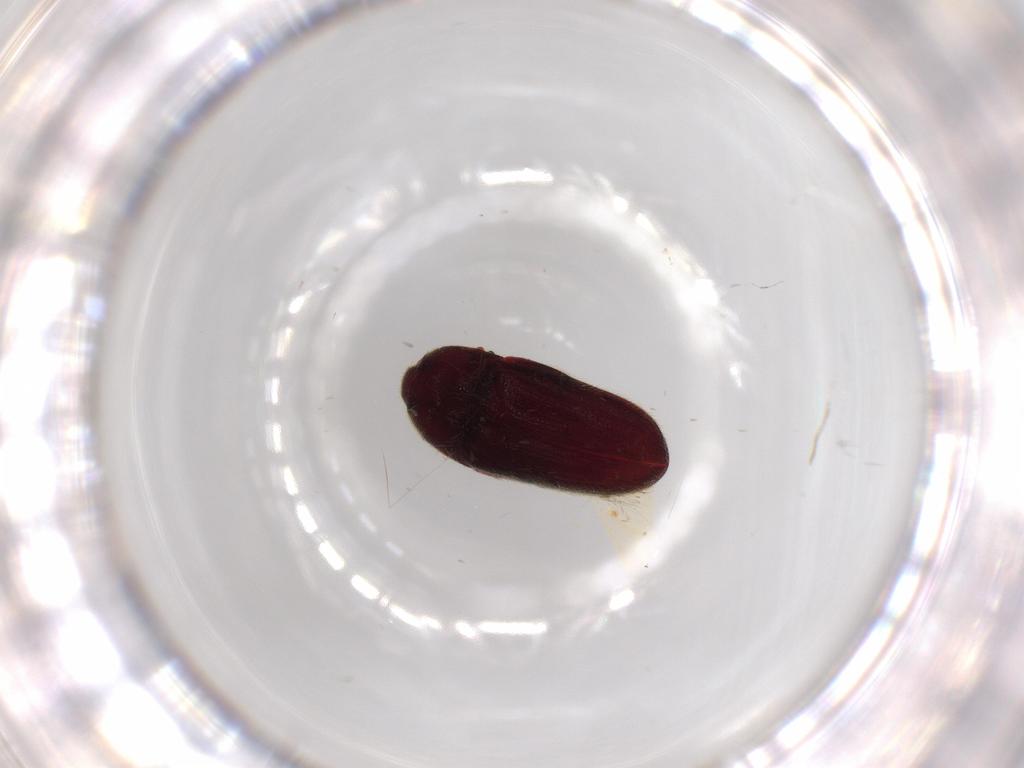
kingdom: Animalia
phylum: Arthropoda
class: Insecta
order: Coleoptera
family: Throscidae
